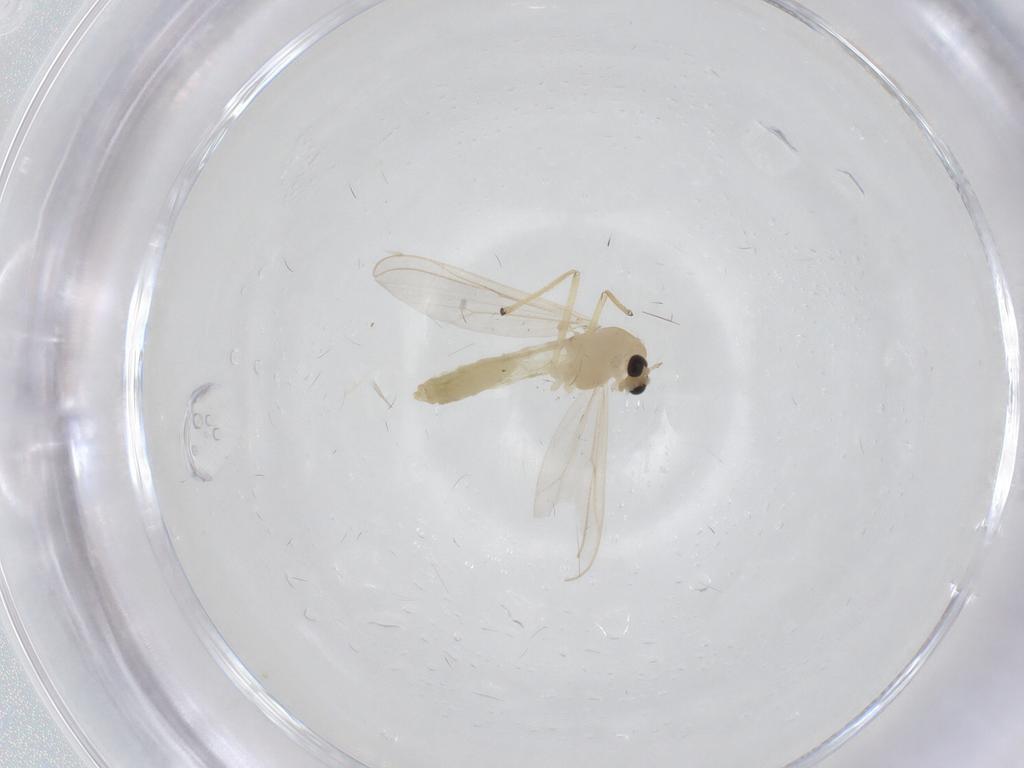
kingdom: Animalia
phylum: Arthropoda
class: Insecta
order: Diptera
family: Chironomidae
